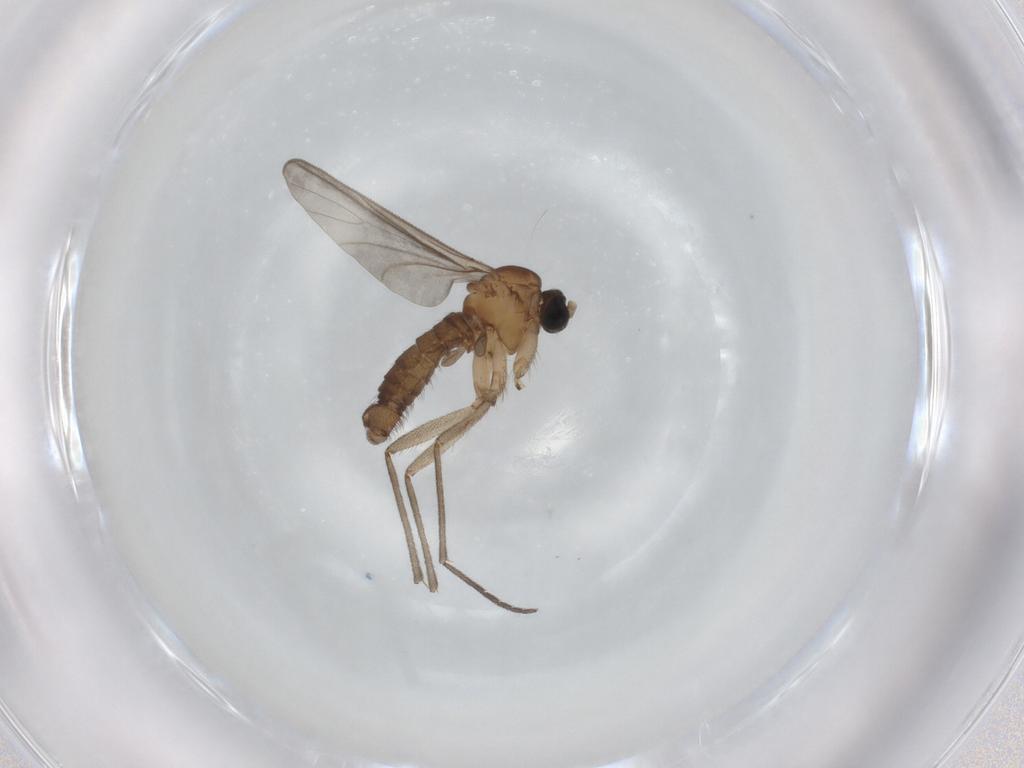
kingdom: Animalia
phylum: Arthropoda
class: Insecta
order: Diptera
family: Sciaridae
